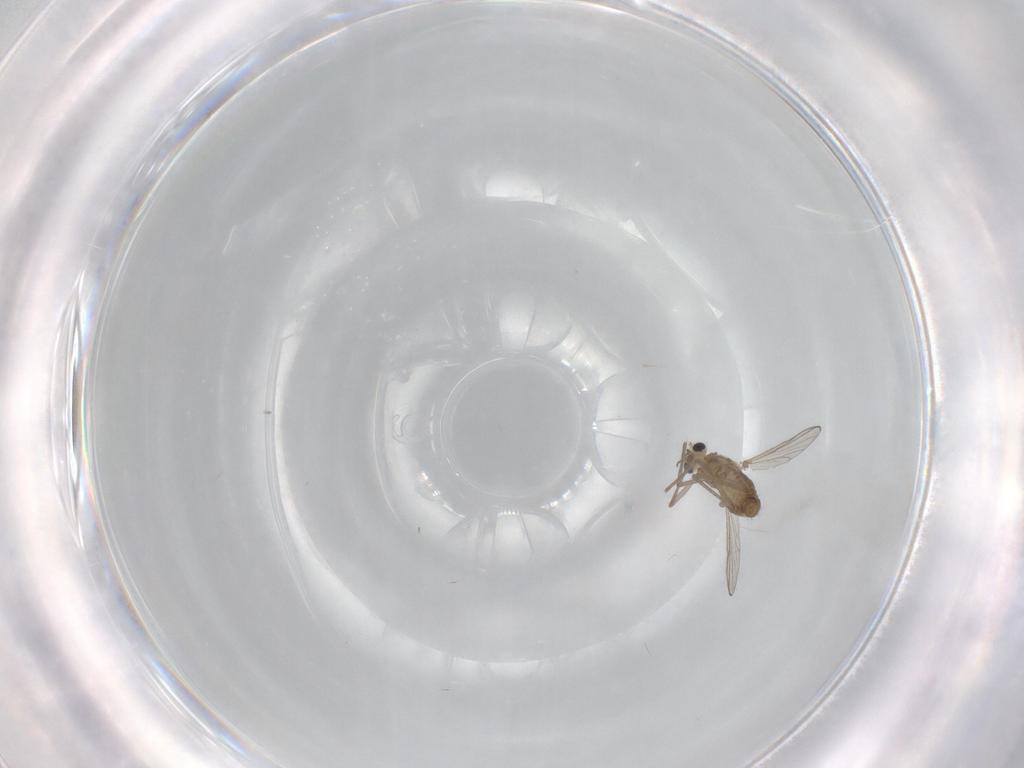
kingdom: Animalia
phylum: Arthropoda
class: Insecta
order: Diptera
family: Chironomidae
